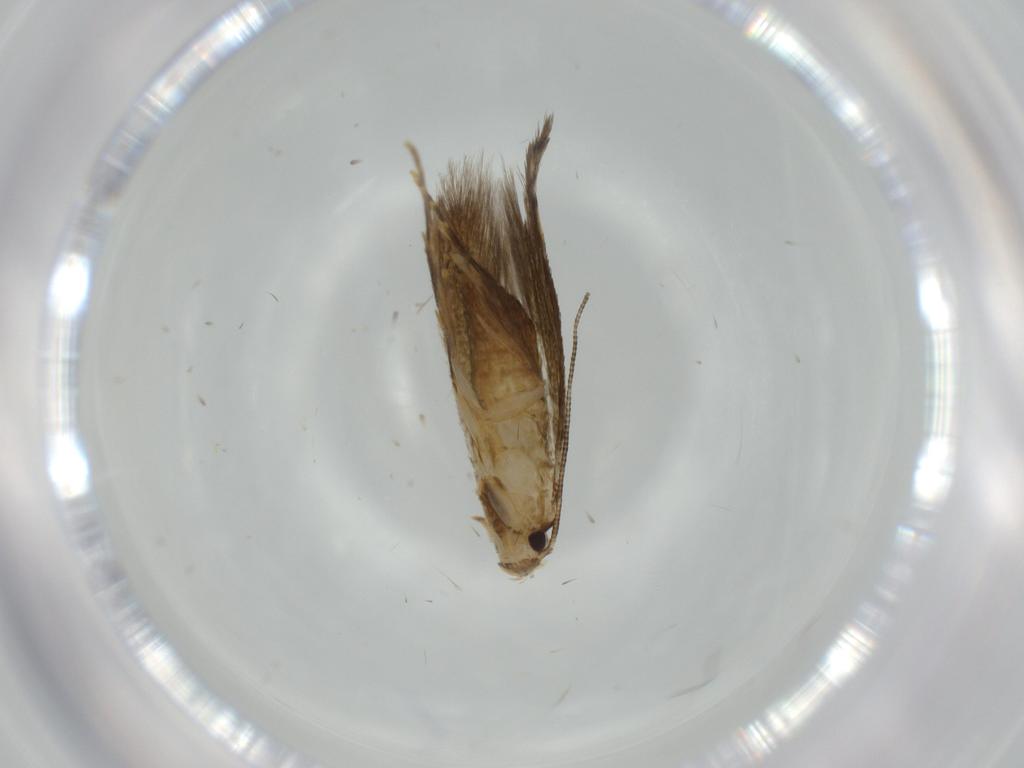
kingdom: Animalia
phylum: Arthropoda
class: Insecta
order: Lepidoptera
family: Tineidae
